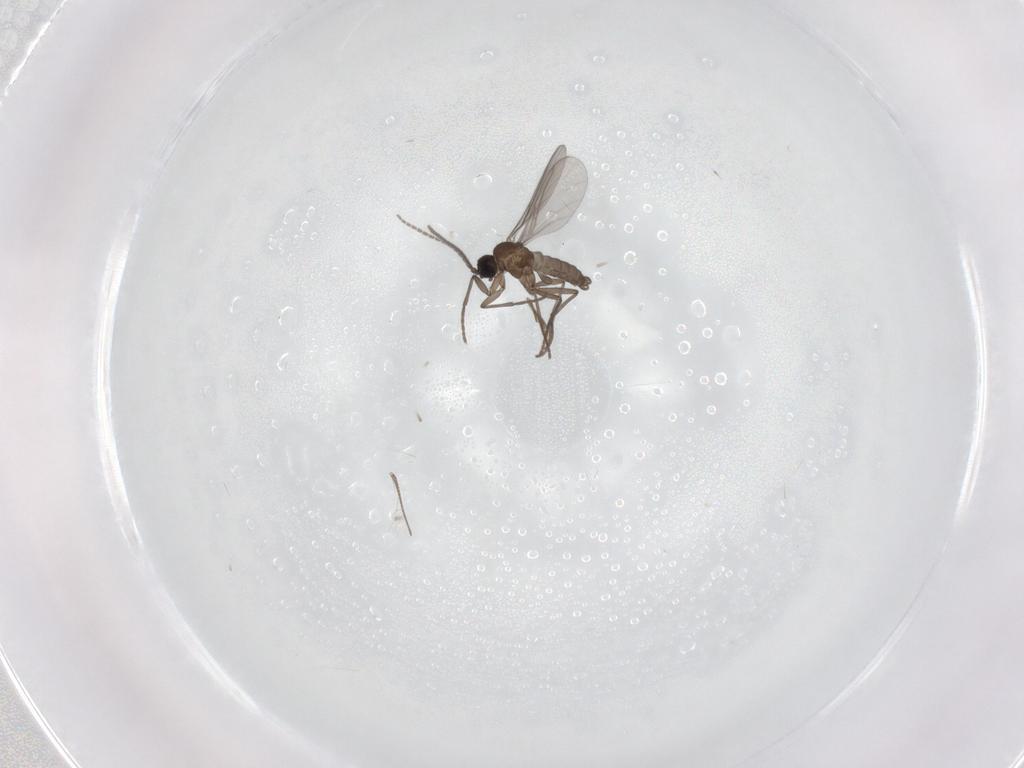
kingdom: Animalia
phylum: Arthropoda
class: Insecta
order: Diptera
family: Sciaridae
